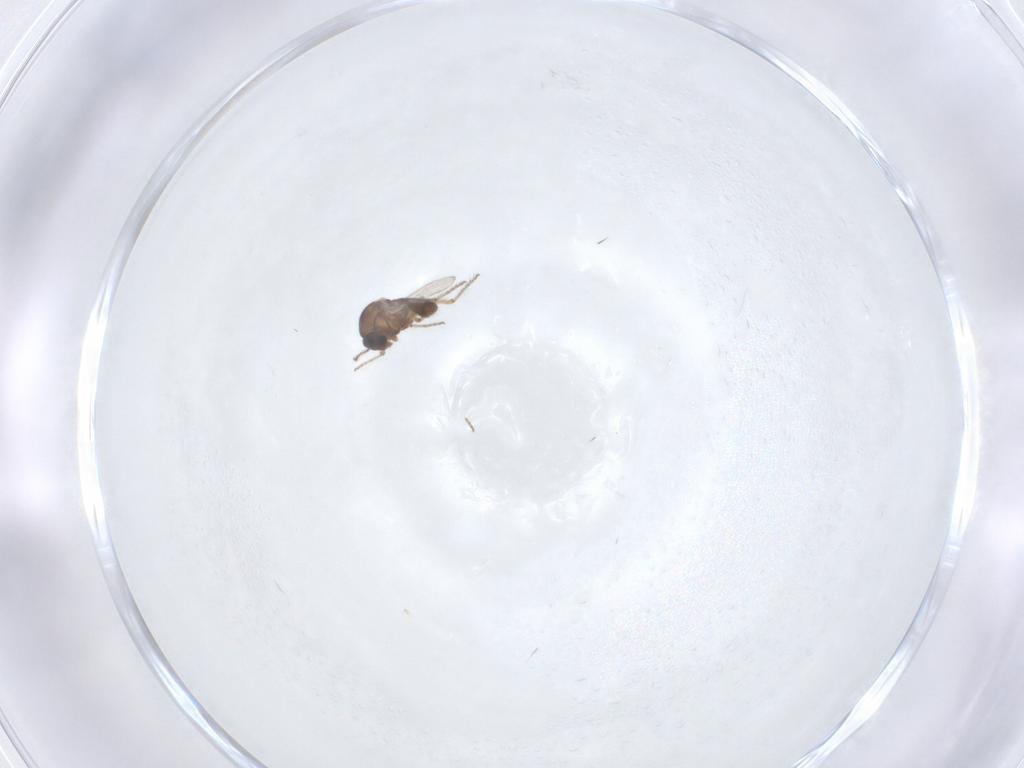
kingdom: Animalia
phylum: Arthropoda
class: Insecta
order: Diptera
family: Ceratopogonidae
